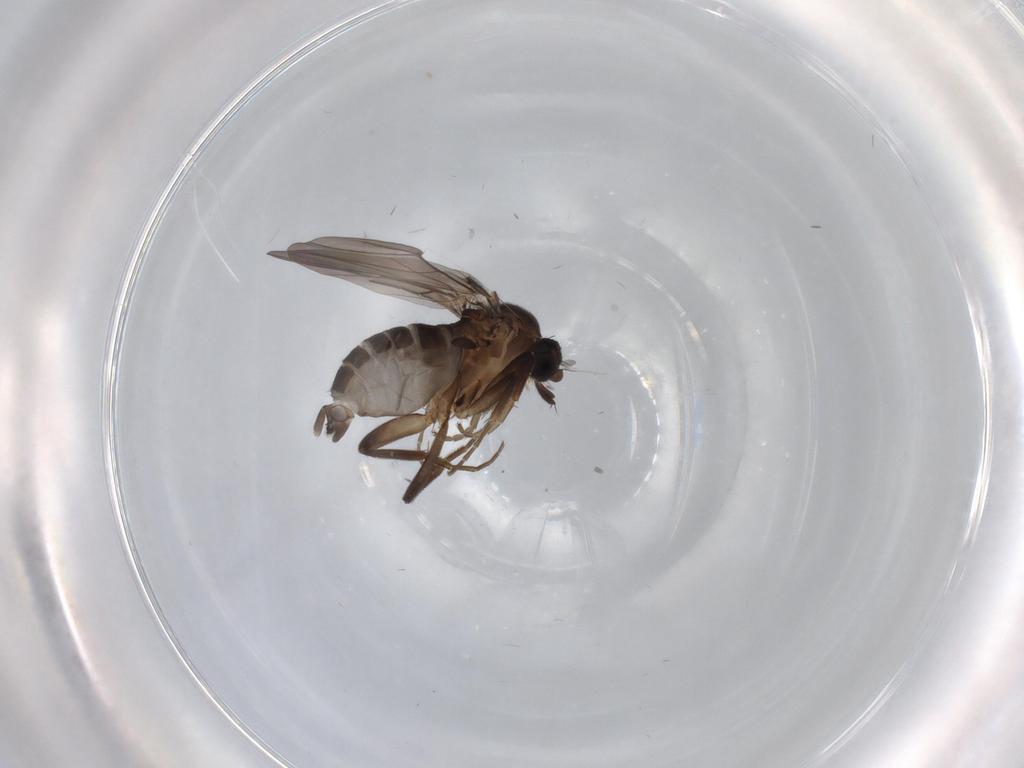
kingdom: Animalia
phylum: Arthropoda
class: Insecta
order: Diptera
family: Phoridae
